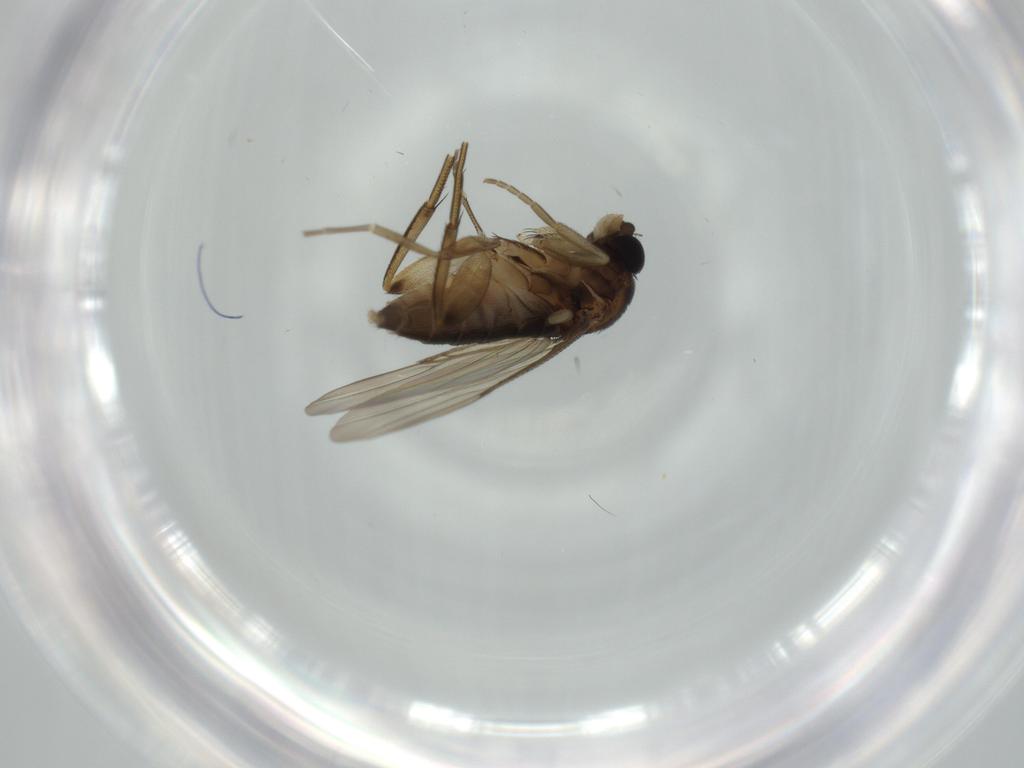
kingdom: Animalia
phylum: Arthropoda
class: Insecta
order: Diptera
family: Phoridae
